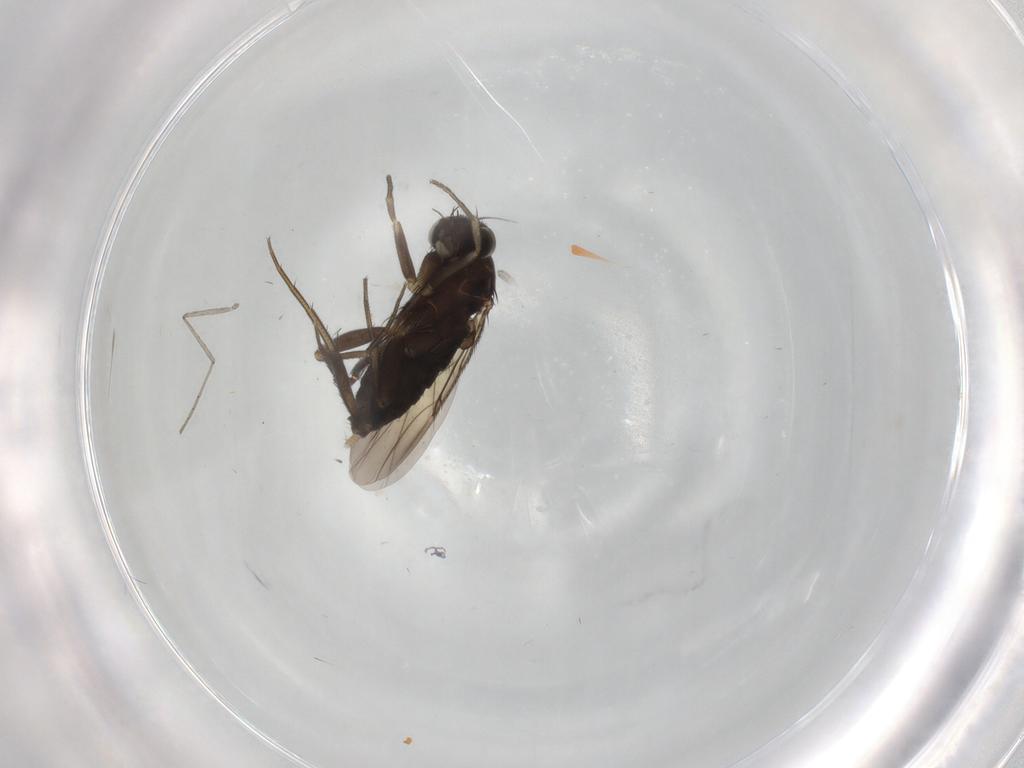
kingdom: Animalia
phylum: Arthropoda
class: Insecta
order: Diptera
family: Phoridae
